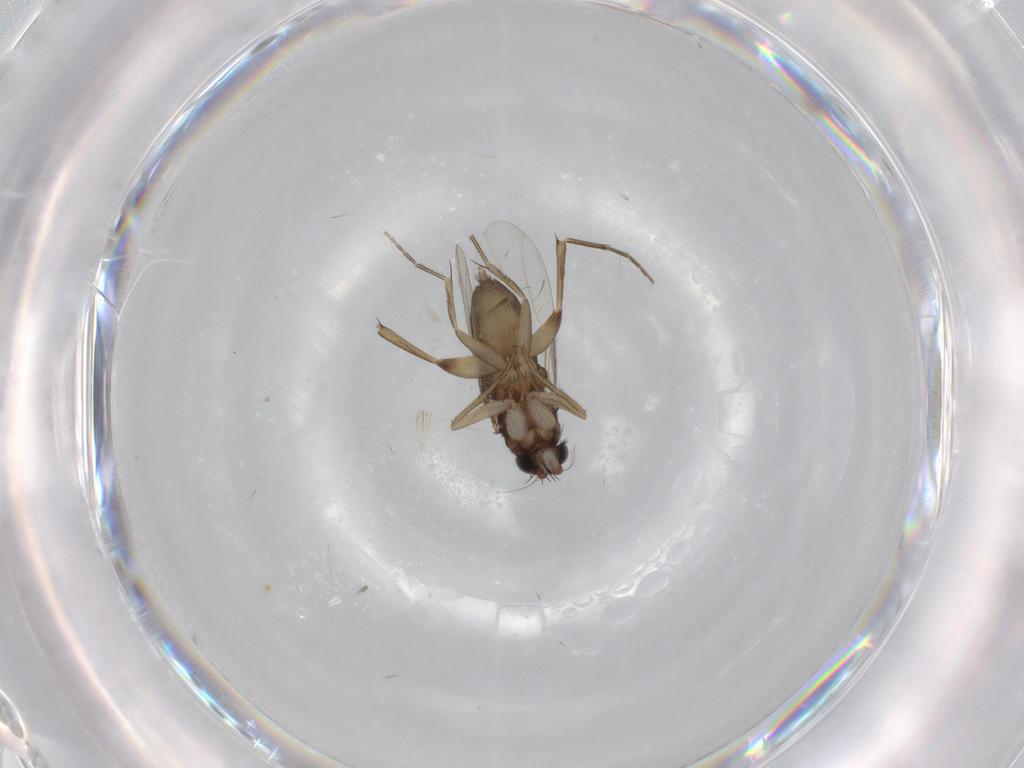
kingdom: Animalia
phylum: Arthropoda
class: Insecta
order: Diptera
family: Phoridae
